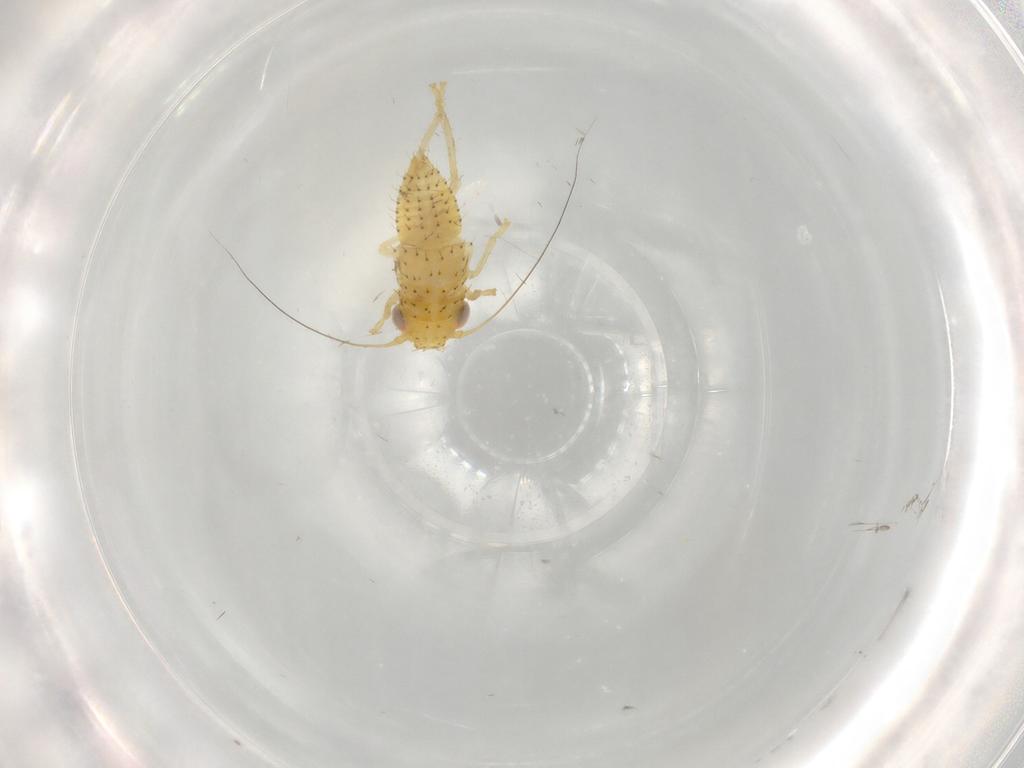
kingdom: Animalia
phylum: Arthropoda
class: Insecta
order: Hemiptera
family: Cicadellidae
